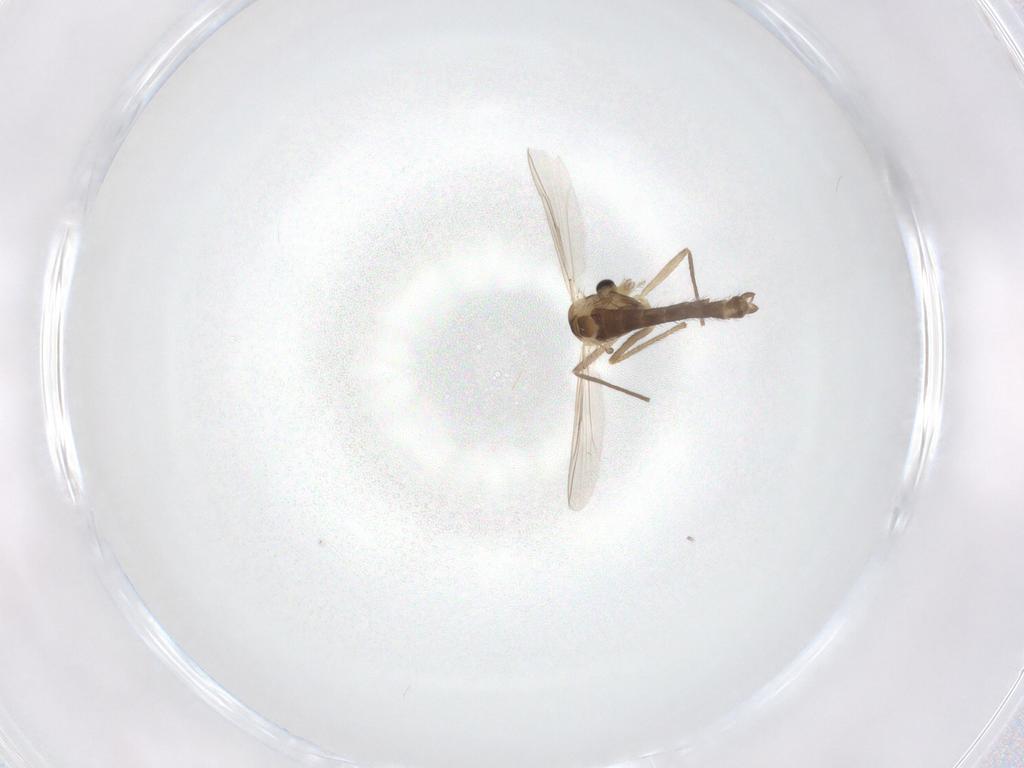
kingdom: Animalia
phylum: Arthropoda
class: Insecta
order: Diptera
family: Chironomidae
